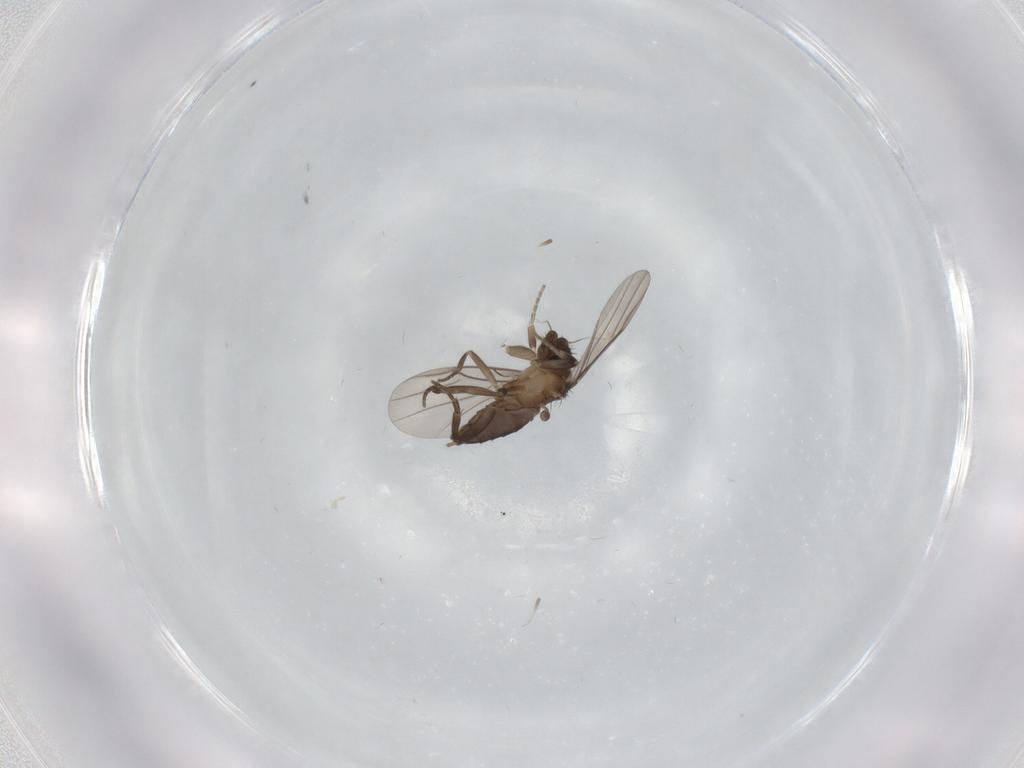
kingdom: Animalia
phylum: Arthropoda
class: Insecta
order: Diptera
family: Phoridae
